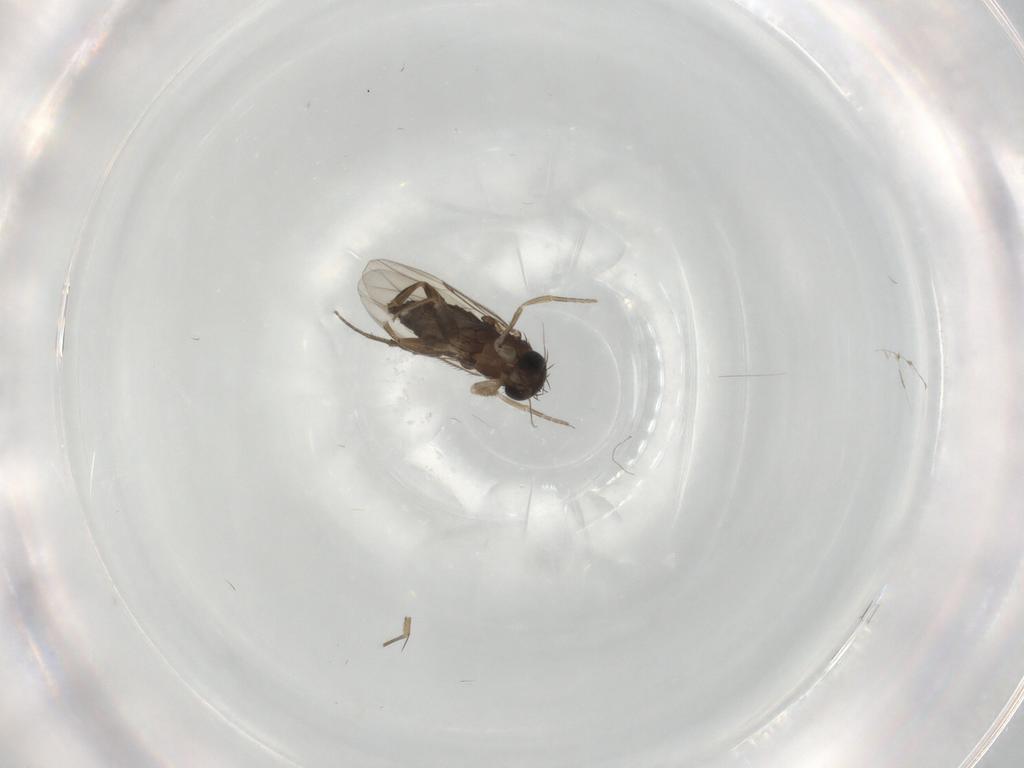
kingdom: Animalia
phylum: Arthropoda
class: Insecta
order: Diptera
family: Phoridae
